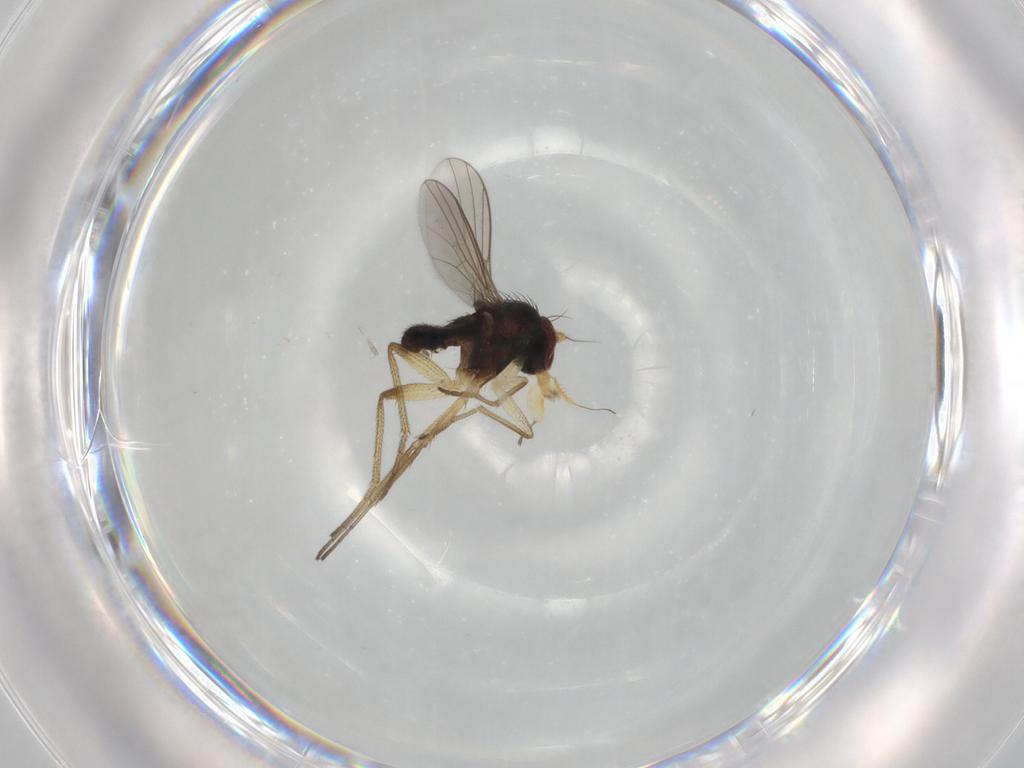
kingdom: Animalia
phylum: Arthropoda
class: Insecta
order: Diptera
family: Dolichopodidae
